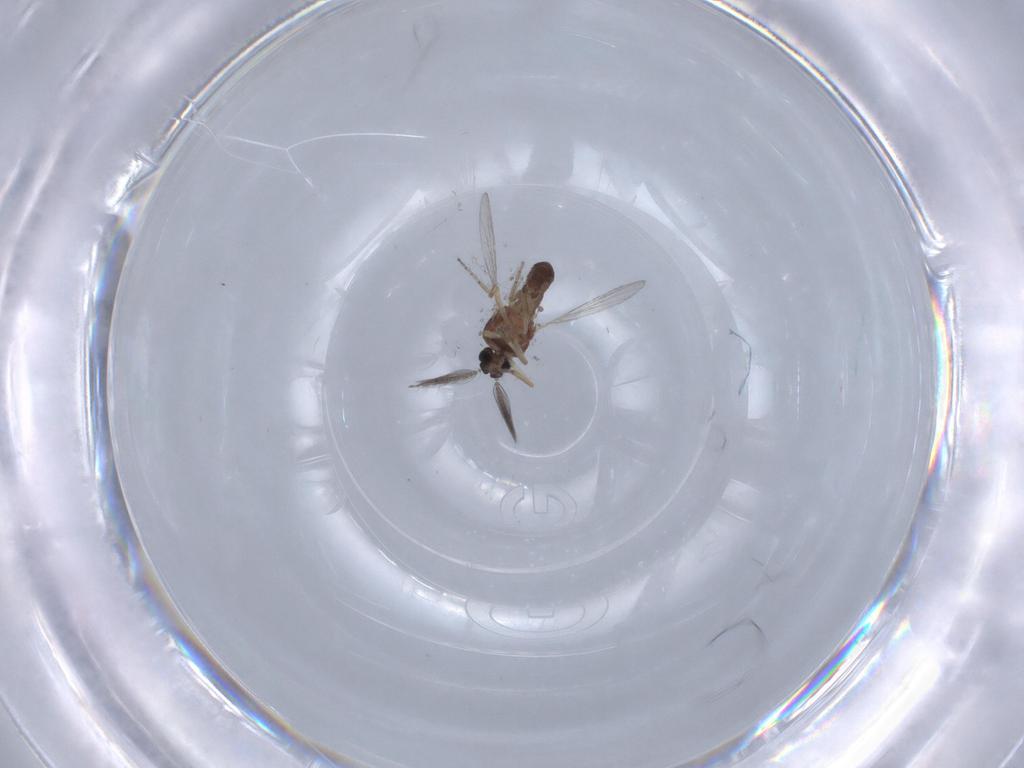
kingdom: Animalia
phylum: Arthropoda
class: Insecta
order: Diptera
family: Ceratopogonidae
